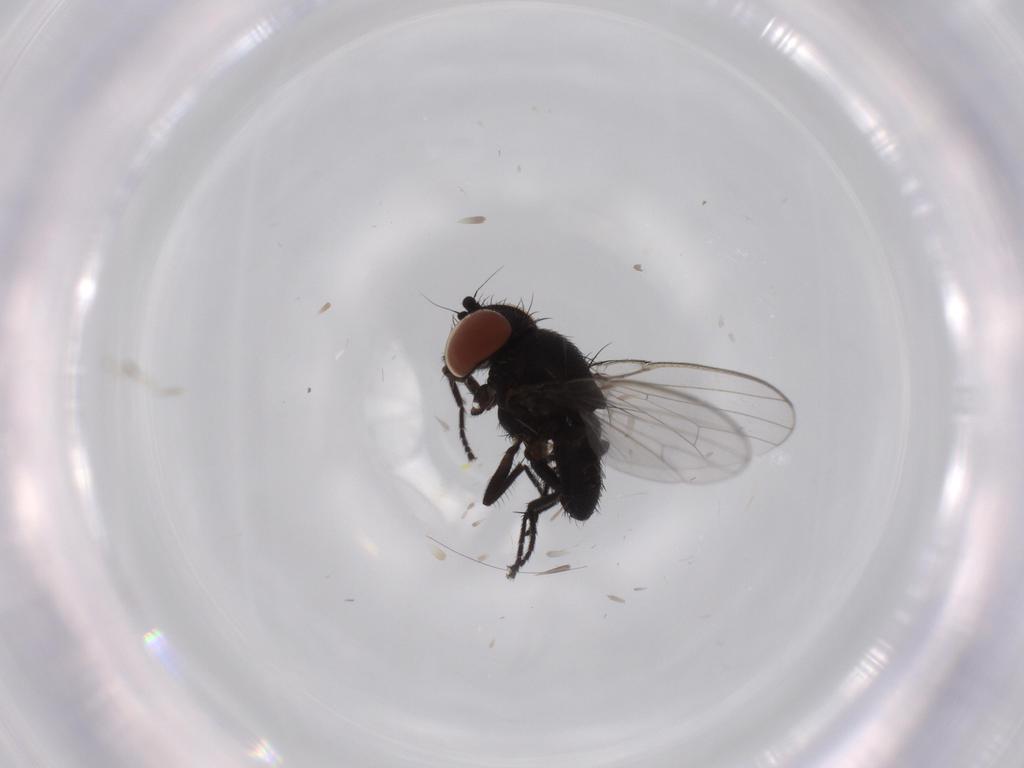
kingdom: Animalia
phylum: Arthropoda
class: Insecta
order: Diptera
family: Milichiidae
